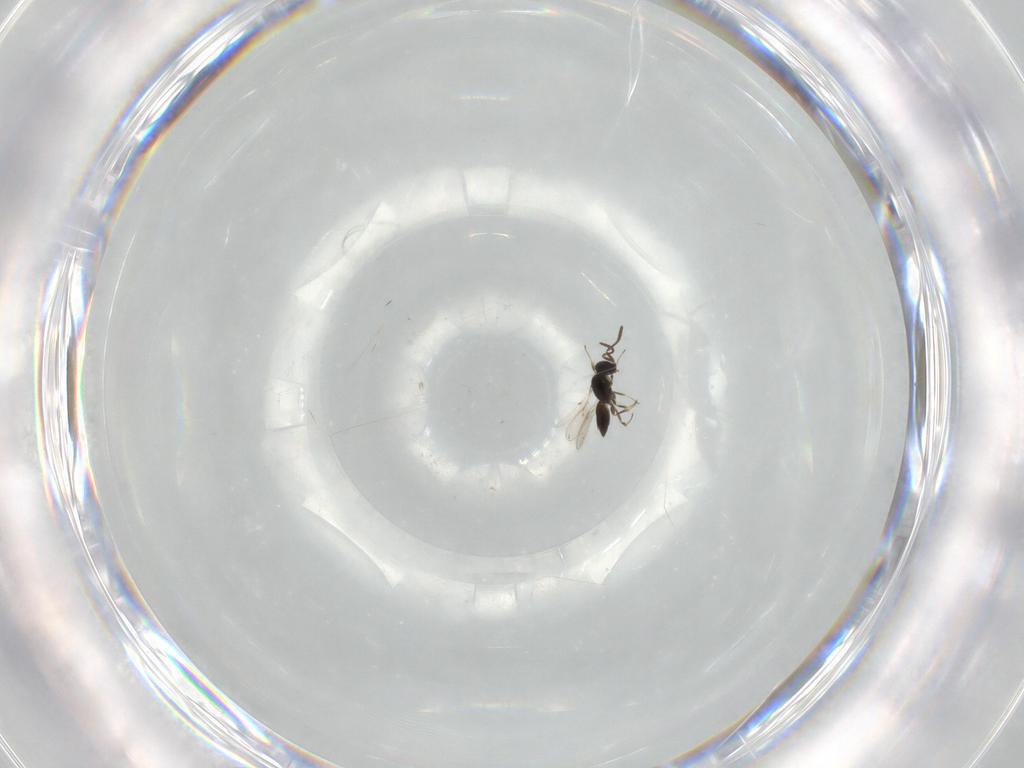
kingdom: Animalia
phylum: Arthropoda
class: Insecta
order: Hymenoptera
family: Scelionidae
